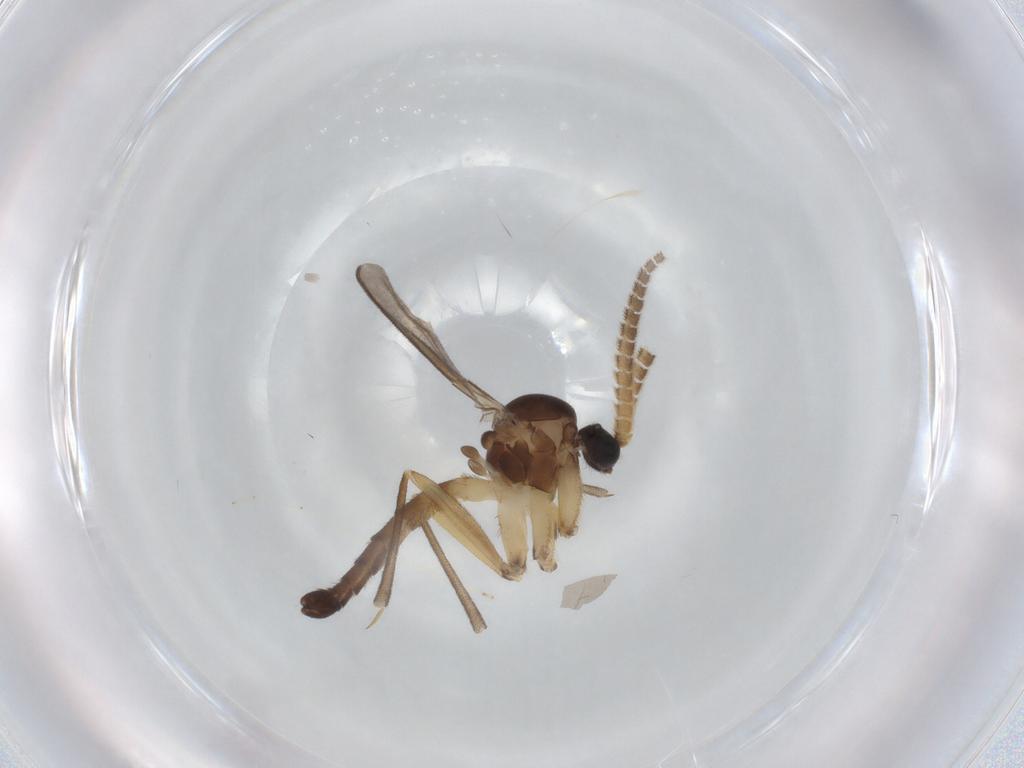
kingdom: Animalia
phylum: Arthropoda
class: Insecta
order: Diptera
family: Mycetophilidae
